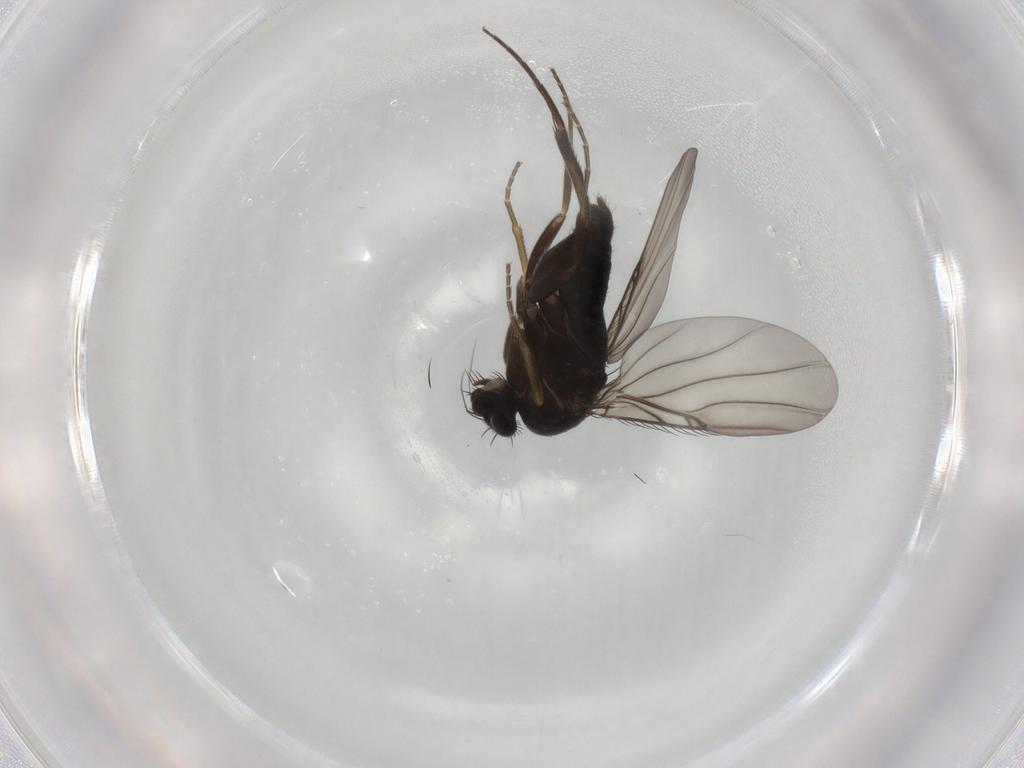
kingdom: Animalia
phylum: Arthropoda
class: Insecta
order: Diptera
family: Phoridae
